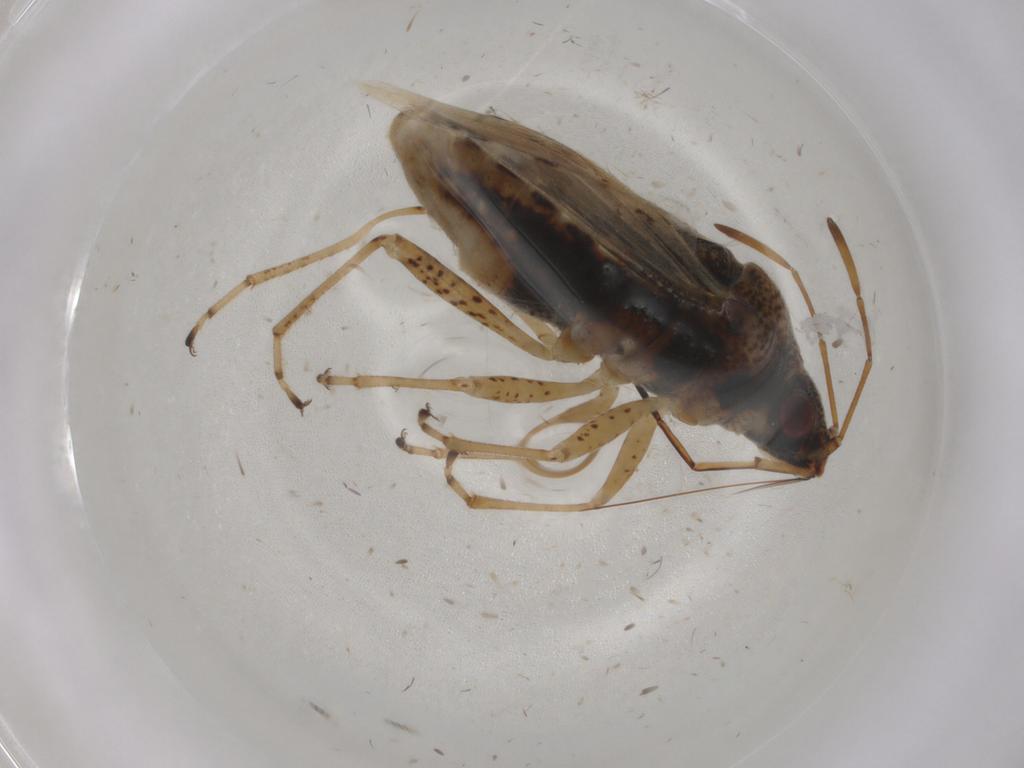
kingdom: Animalia
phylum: Arthropoda
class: Insecta
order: Hemiptera
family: Lygaeidae
